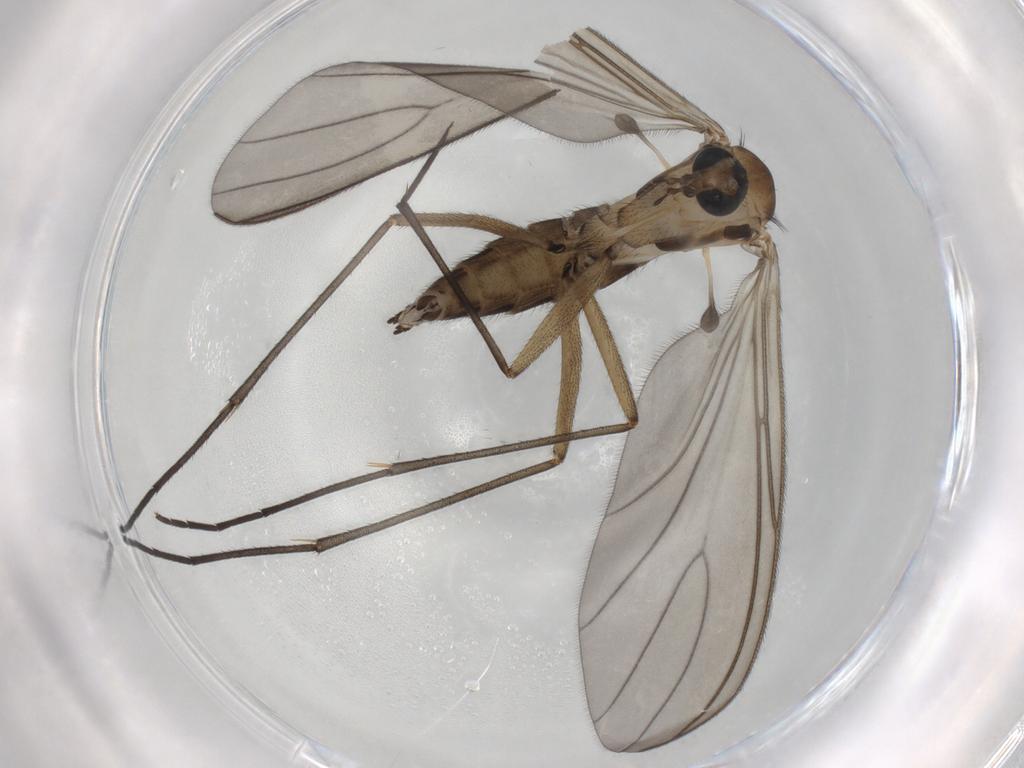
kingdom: Animalia
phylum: Arthropoda
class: Insecta
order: Diptera
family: Sciaridae
